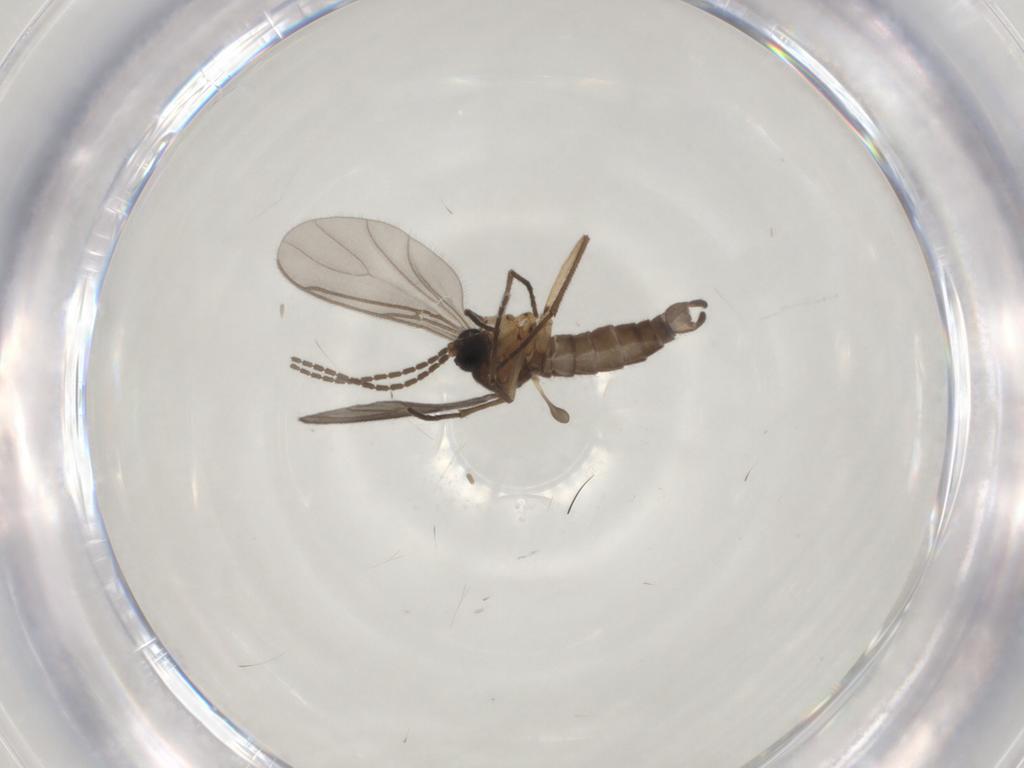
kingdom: Animalia
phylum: Arthropoda
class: Insecta
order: Diptera
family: Sciaridae
